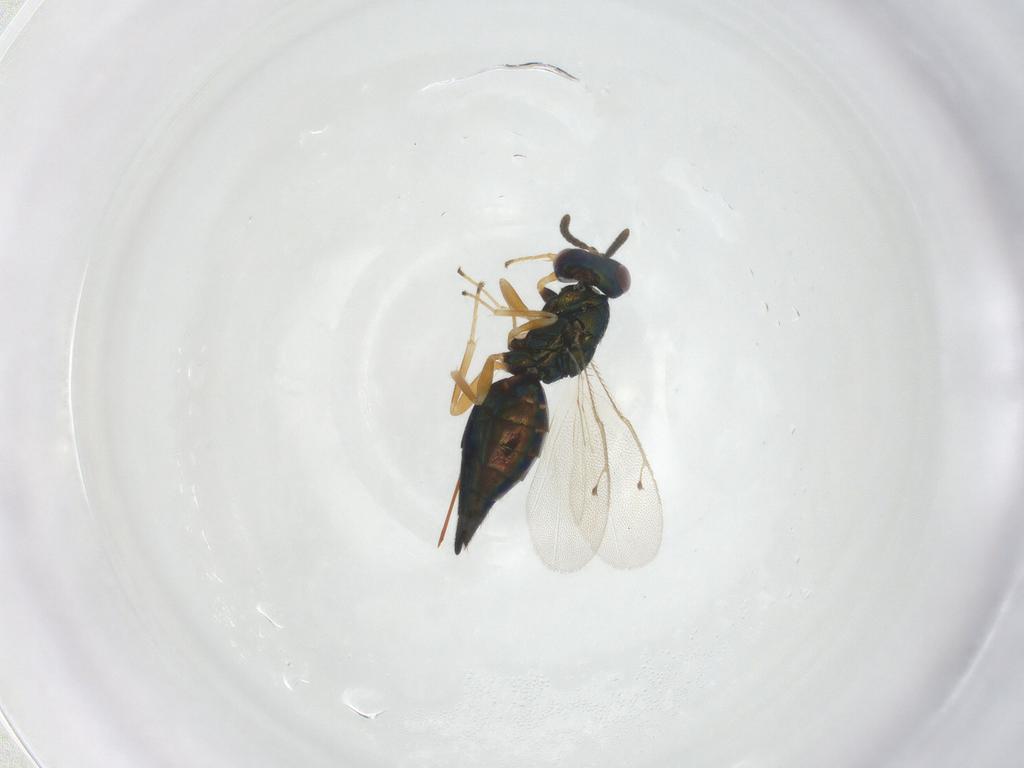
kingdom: Animalia
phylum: Arthropoda
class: Insecta
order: Hymenoptera
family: Pteromalidae
